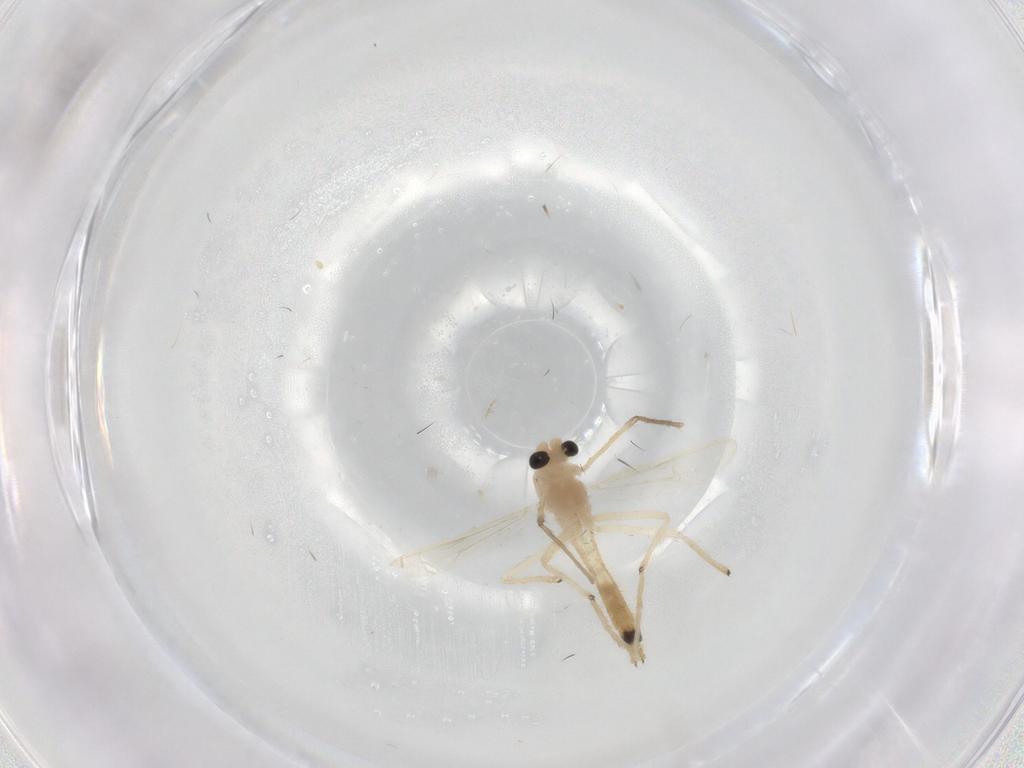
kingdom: Animalia
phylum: Arthropoda
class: Insecta
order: Diptera
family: Chironomidae
